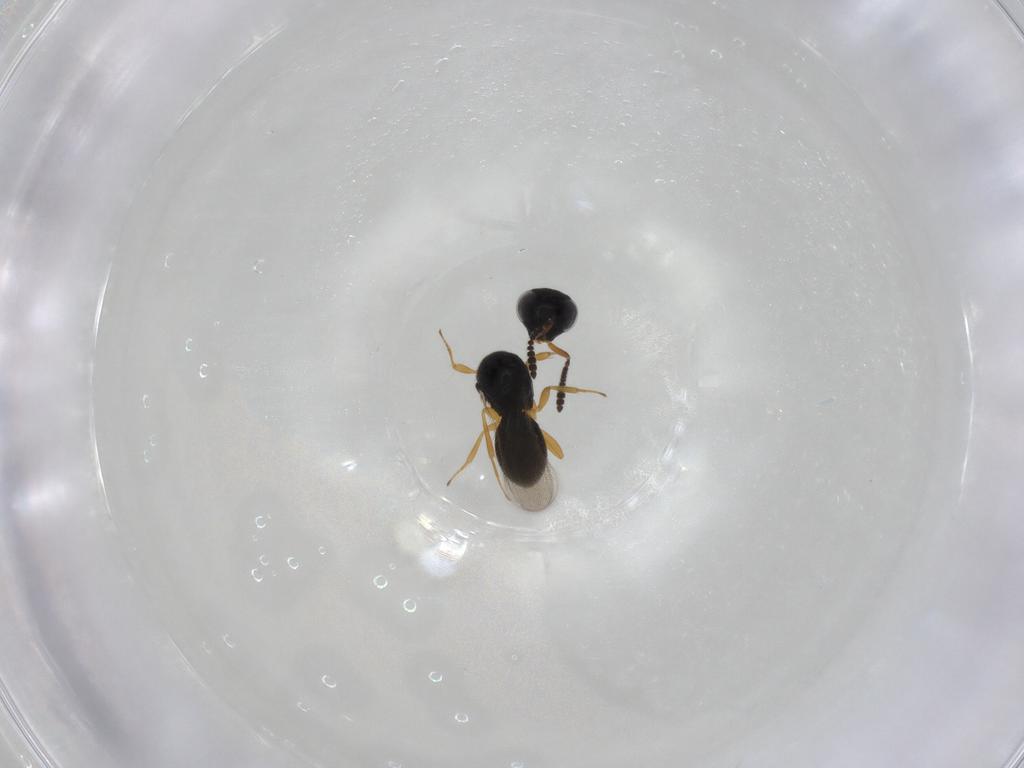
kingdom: Animalia
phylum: Arthropoda
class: Insecta
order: Hymenoptera
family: Scelionidae
